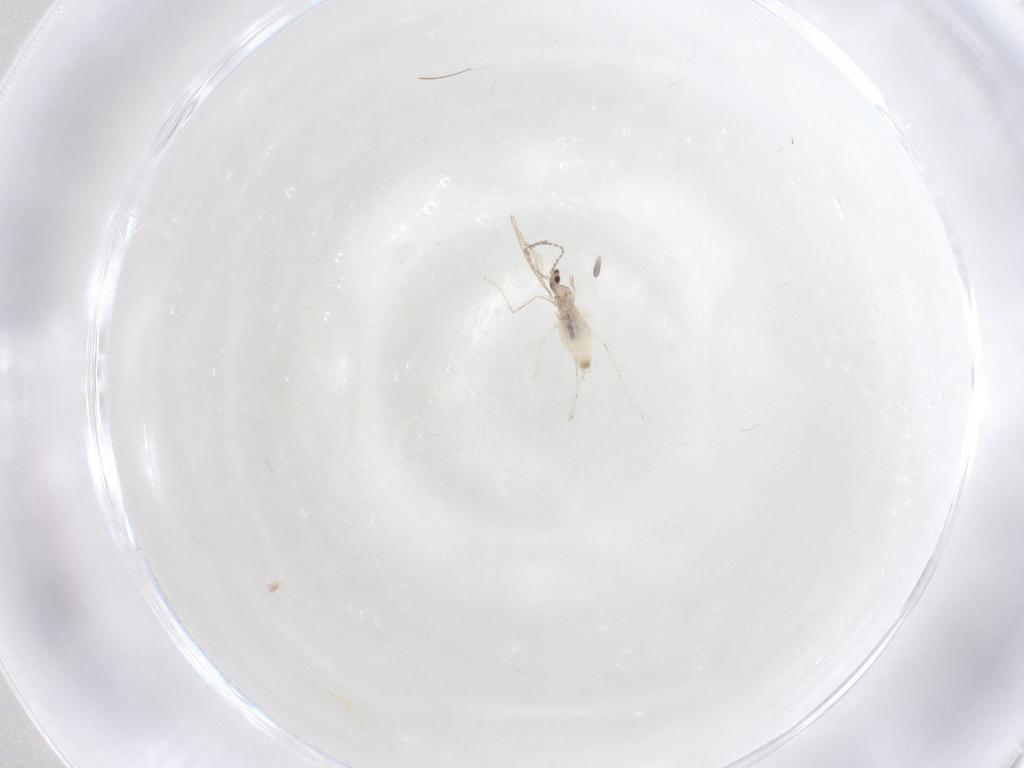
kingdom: Animalia
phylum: Arthropoda
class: Insecta
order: Diptera
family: Cecidomyiidae
